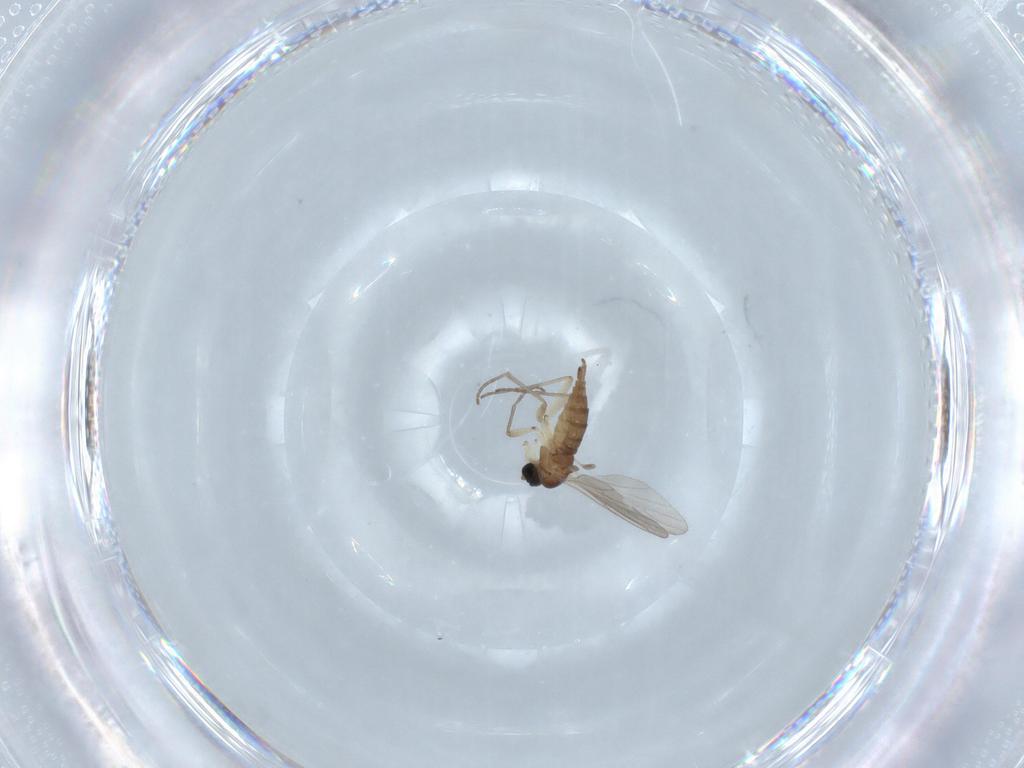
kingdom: Animalia
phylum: Arthropoda
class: Insecta
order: Diptera
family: Sciaridae
